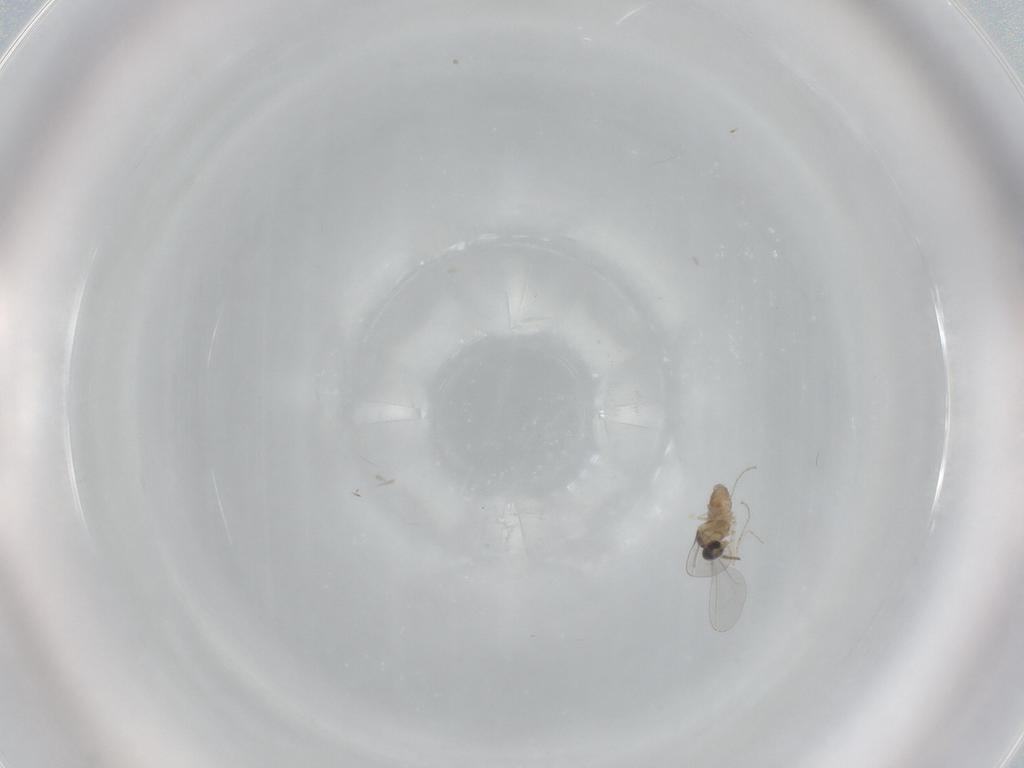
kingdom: Animalia
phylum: Arthropoda
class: Insecta
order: Diptera
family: Cecidomyiidae
